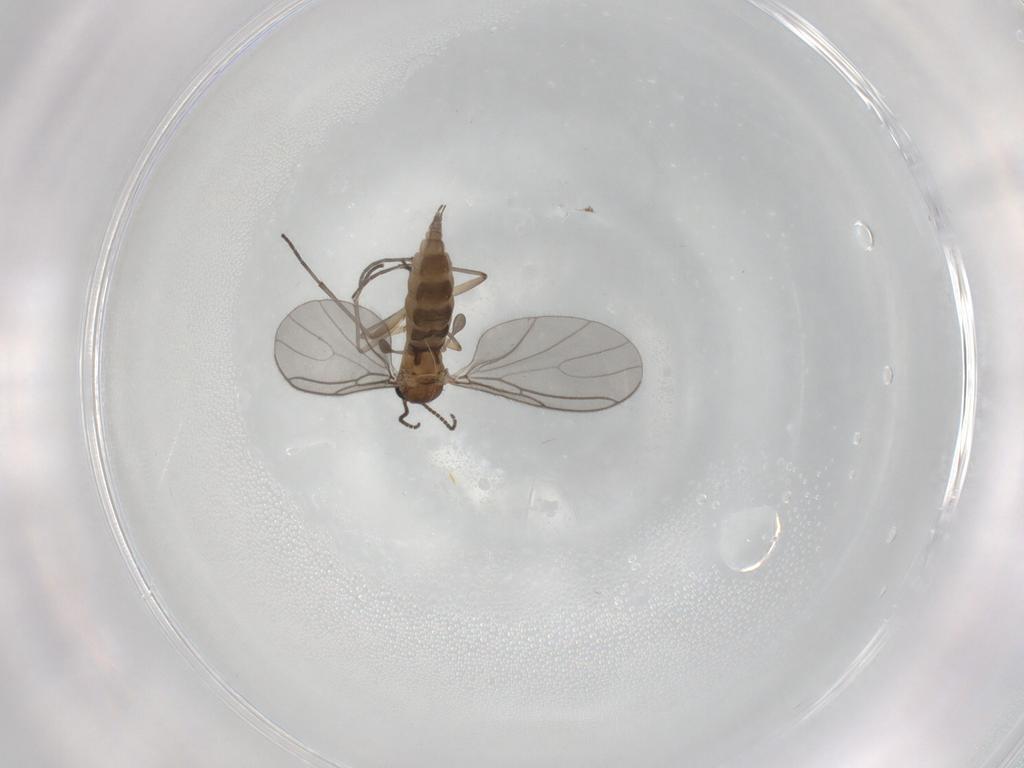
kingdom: Animalia
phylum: Arthropoda
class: Insecta
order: Diptera
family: Sciaridae
